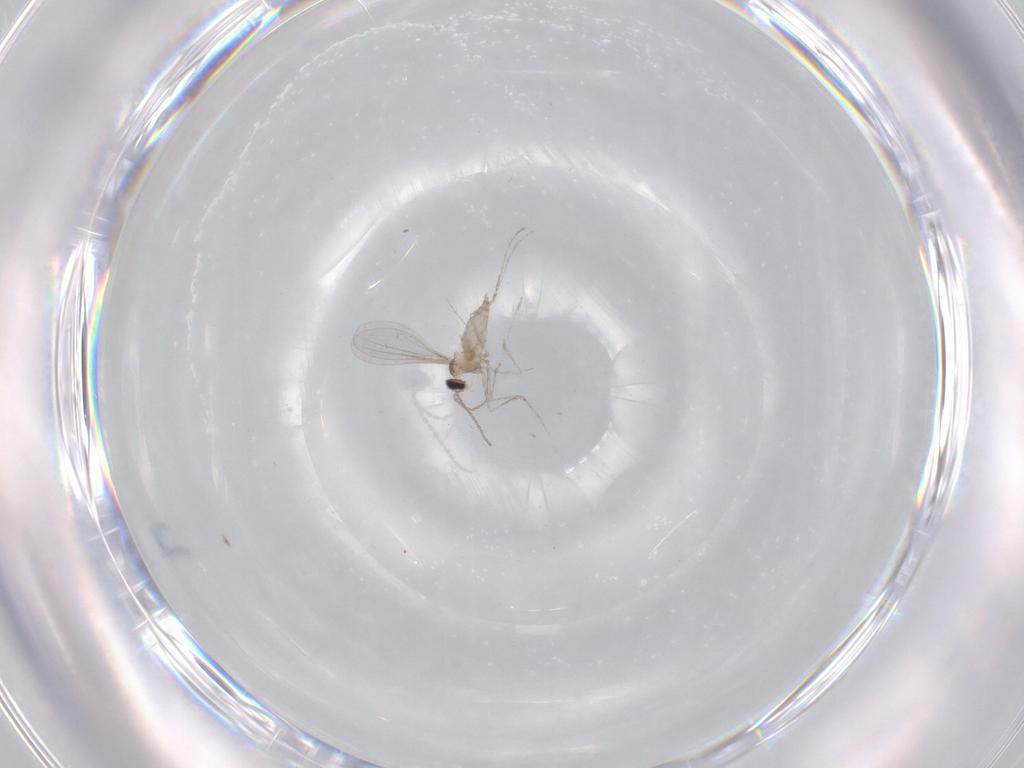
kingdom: Animalia
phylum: Arthropoda
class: Insecta
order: Diptera
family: Cecidomyiidae
